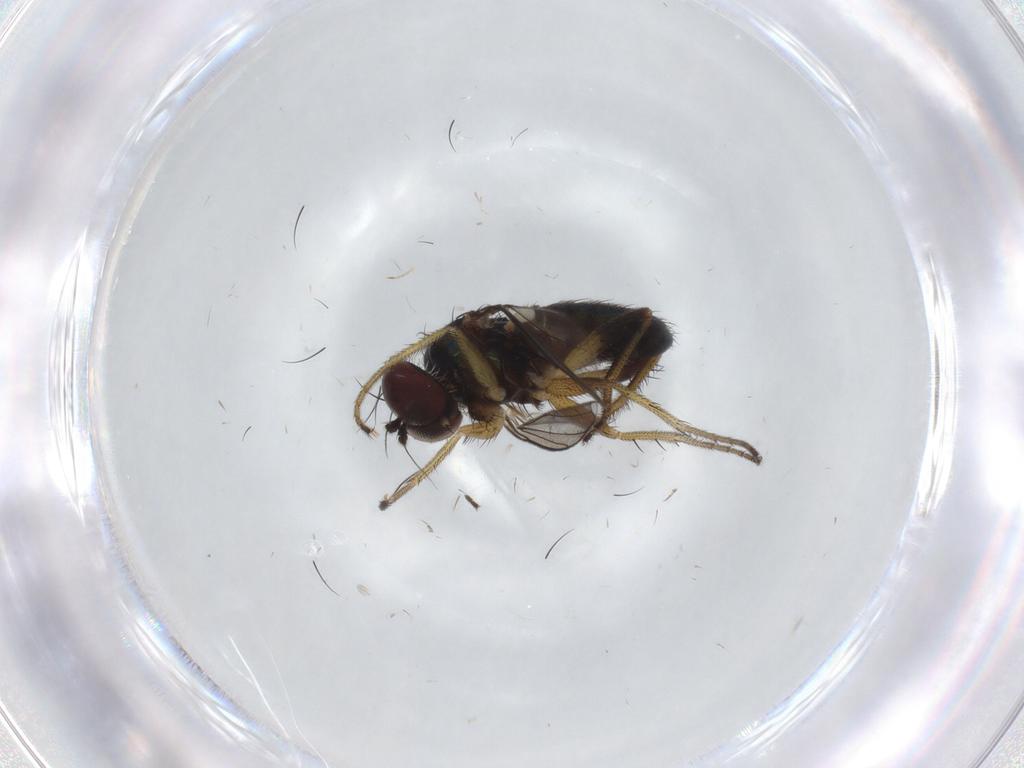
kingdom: Animalia
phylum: Arthropoda
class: Insecta
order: Diptera
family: Dolichopodidae
